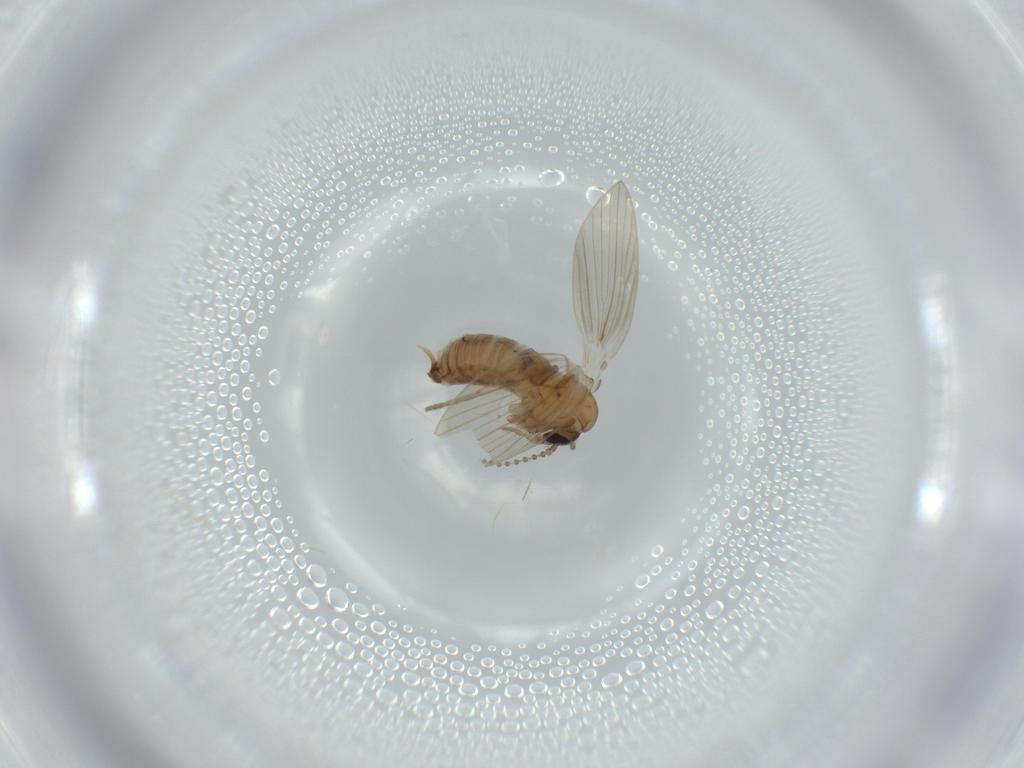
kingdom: Animalia
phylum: Arthropoda
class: Insecta
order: Diptera
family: Psychodidae
